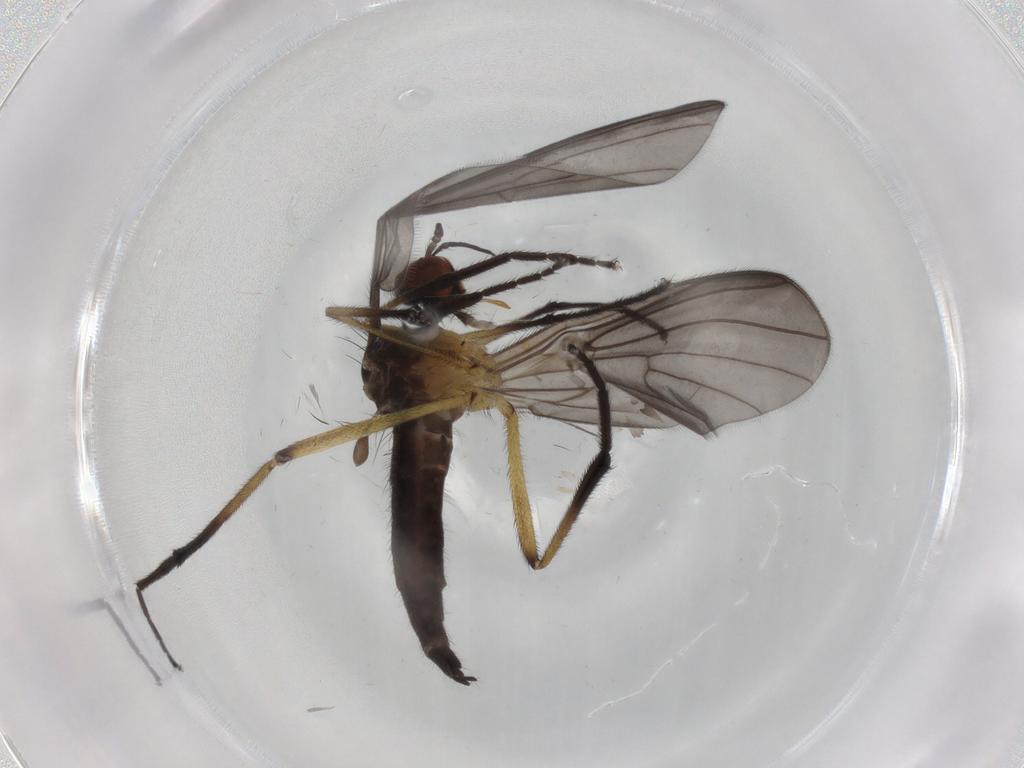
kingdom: Animalia
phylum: Arthropoda
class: Insecta
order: Diptera
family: Empididae
